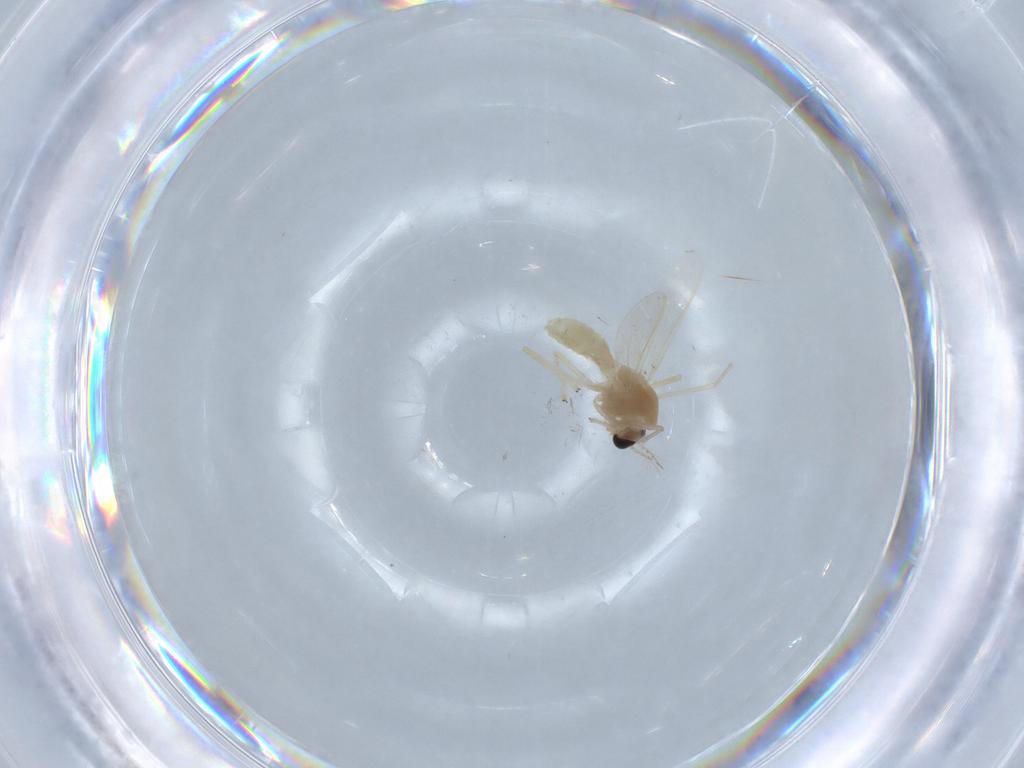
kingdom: Animalia
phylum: Arthropoda
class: Insecta
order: Diptera
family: Chironomidae
